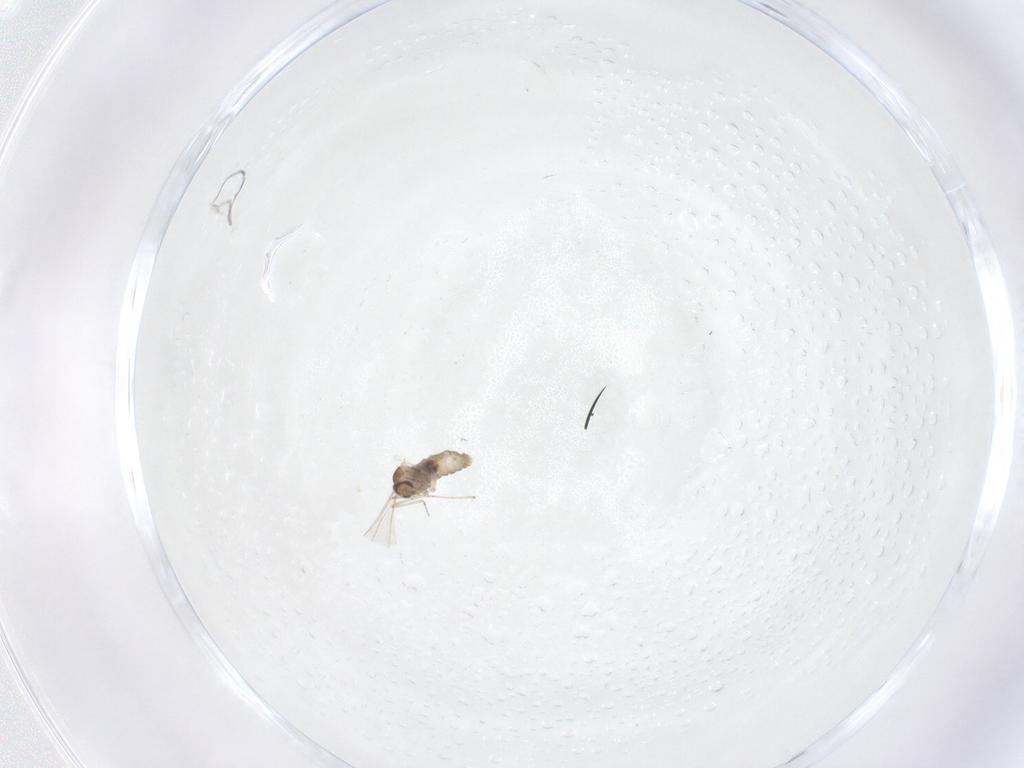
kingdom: Animalia
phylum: Arthropoda
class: Insecta
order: Diptera
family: Cecidomyiidae
